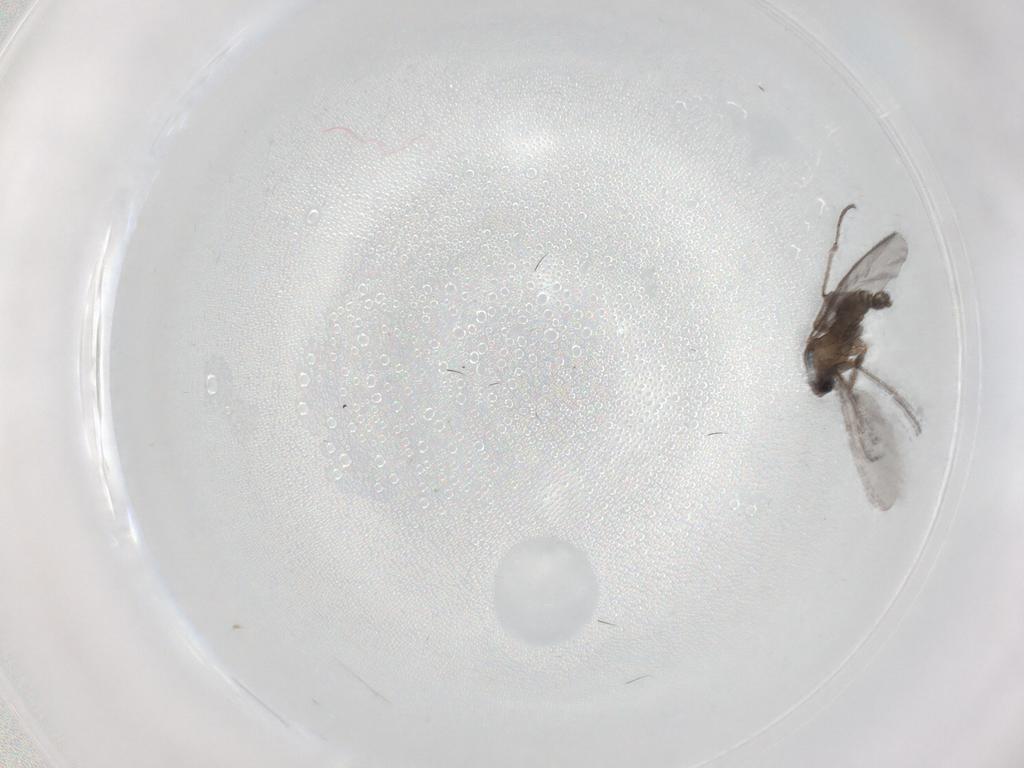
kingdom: Animalia
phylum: Arthropoda
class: Insecta
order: Diptera
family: Sciaridae
